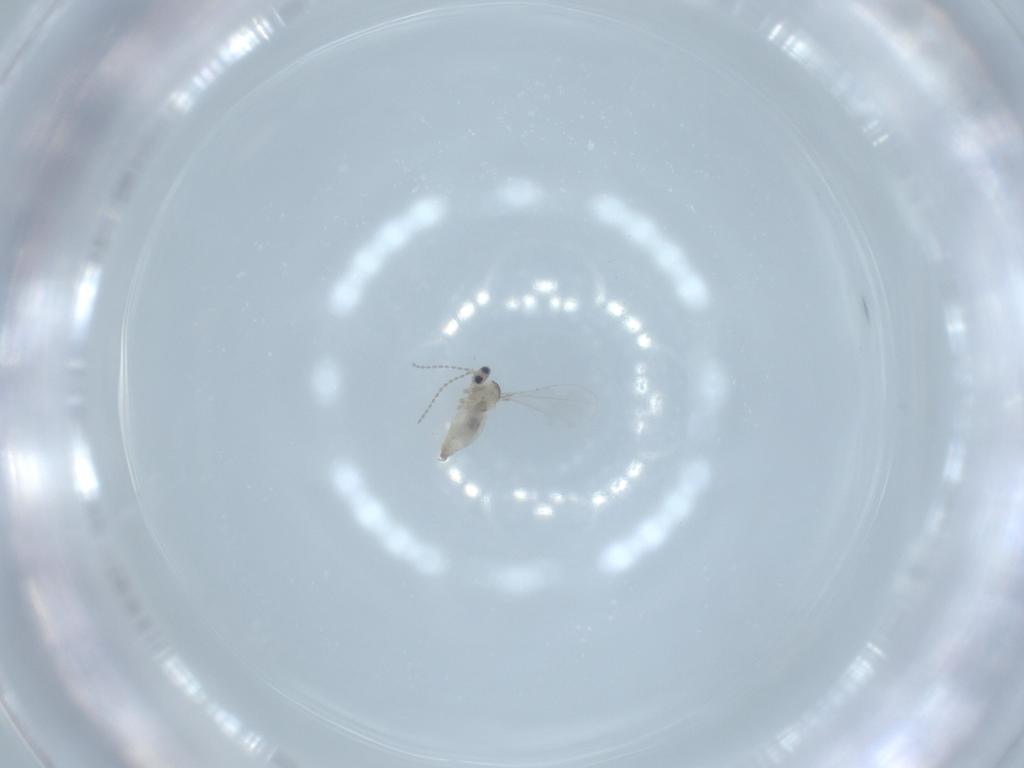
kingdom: Animalia
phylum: Arthropoda
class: Insecta
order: Diptera
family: Cecidomyiidae
